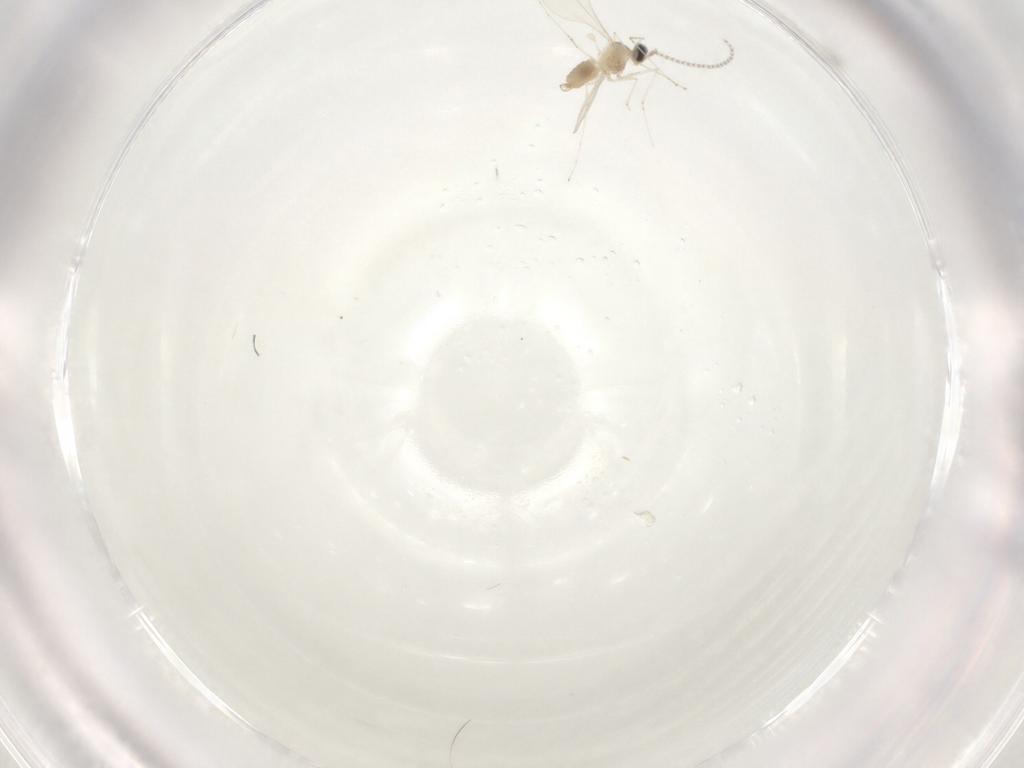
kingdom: Animalia
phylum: Arthropoda
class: Insecta
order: Diptera
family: Cecidomyiidae
